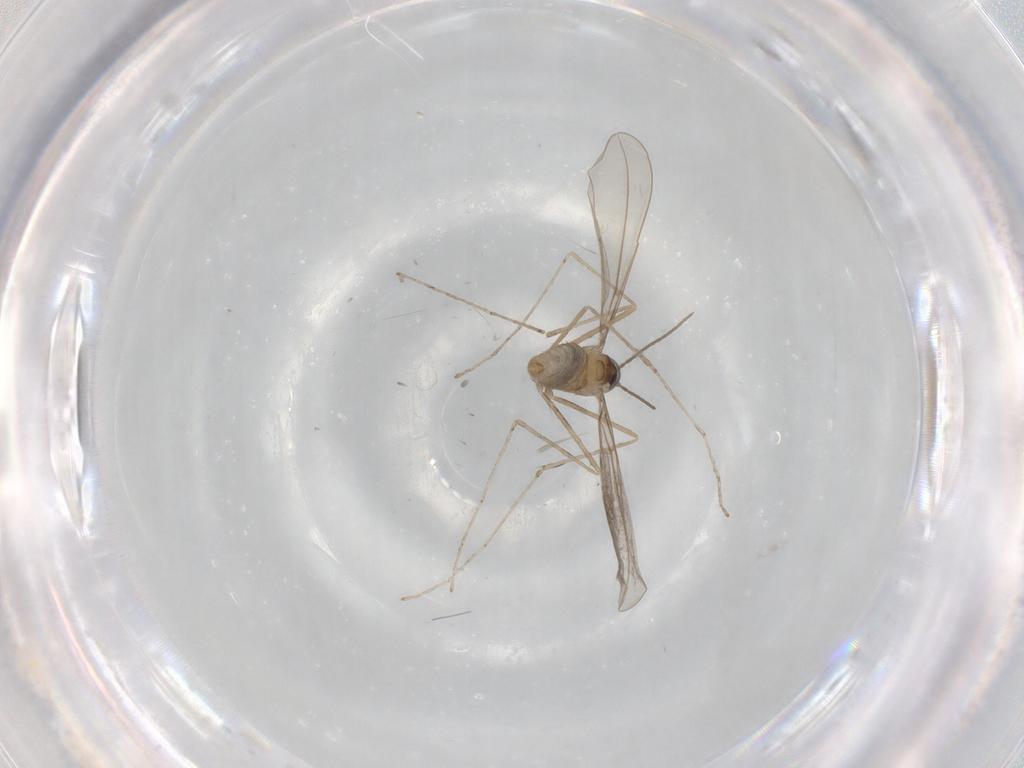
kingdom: Animalia
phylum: Arthropoda
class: Insecta
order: Diptera
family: Cecidomyiidae
